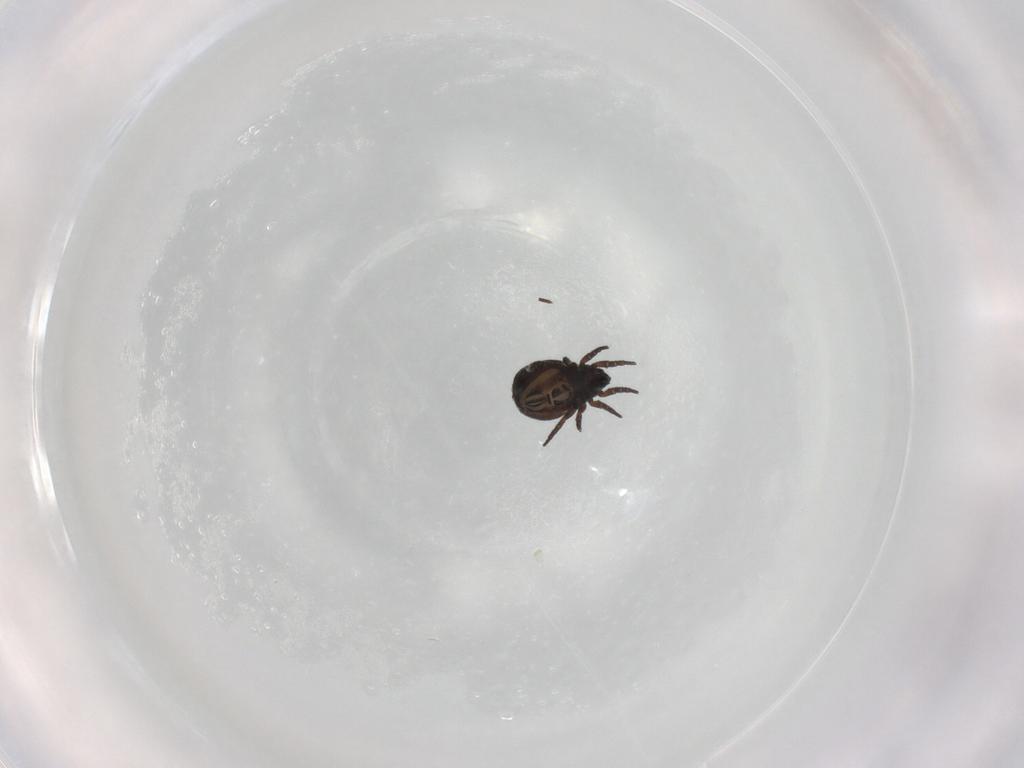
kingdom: Animalia
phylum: Arthropoda
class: Arachnida
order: Sarcoptiformes
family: Crotoniidae
